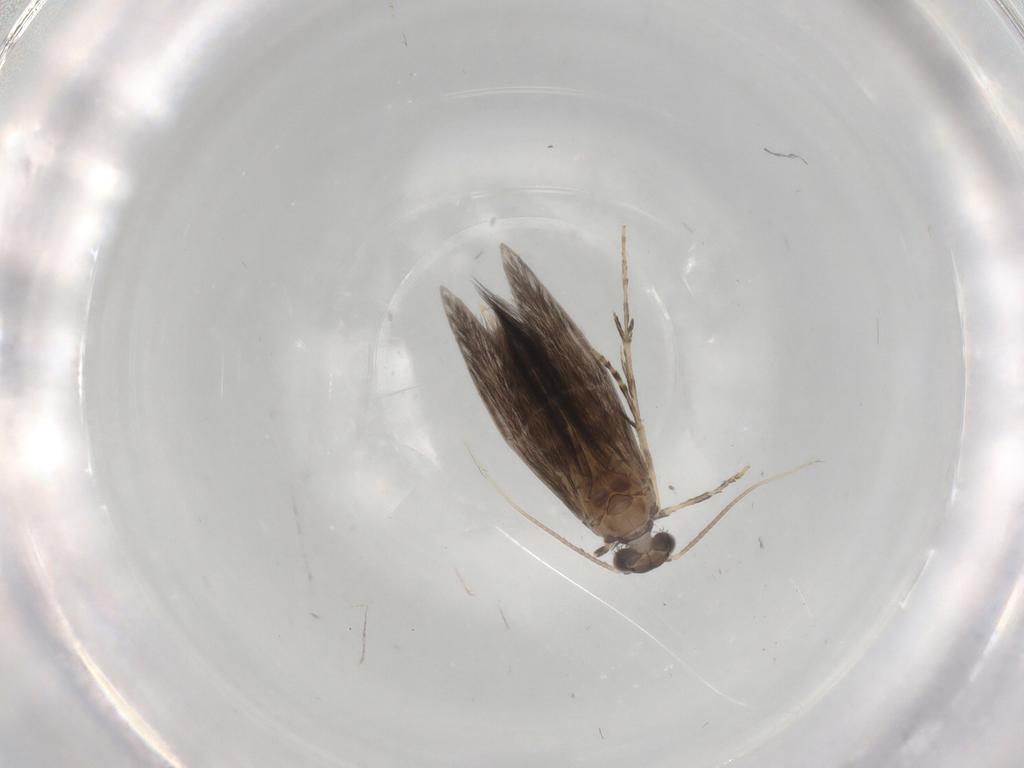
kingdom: Animalia
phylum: Arthropoda
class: Insecta
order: Trichoptera
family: Hydroptilidae
